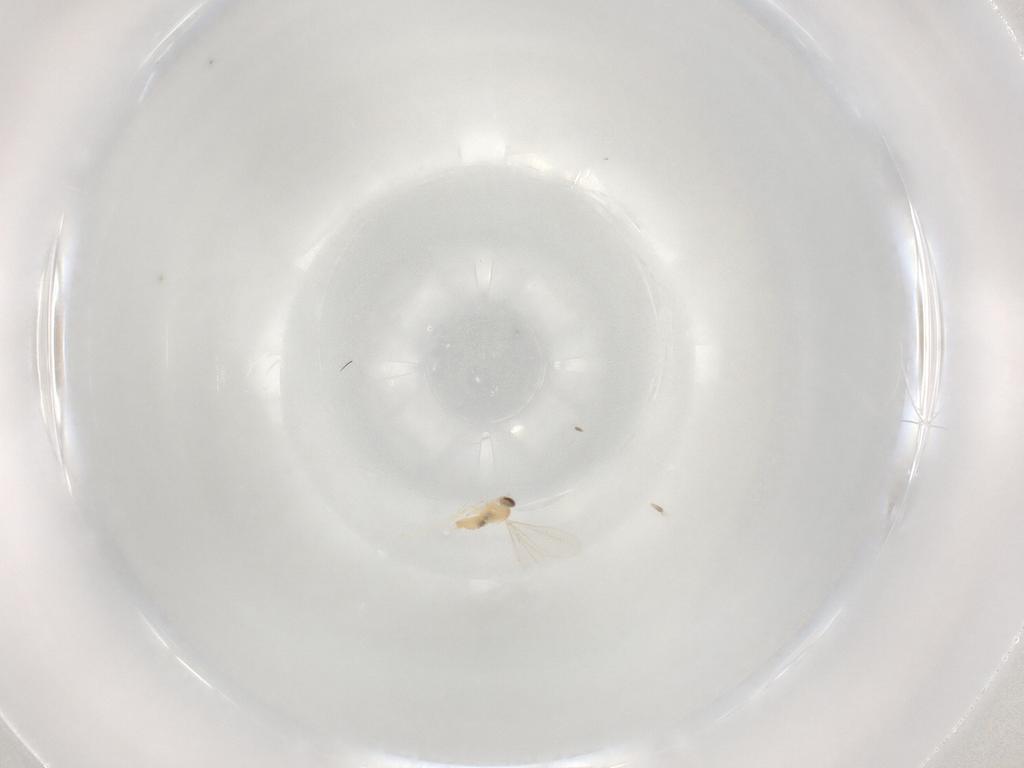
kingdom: Animalia
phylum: Arthropoda
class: Insecta
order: Diptera
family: Cecidomyiidae
